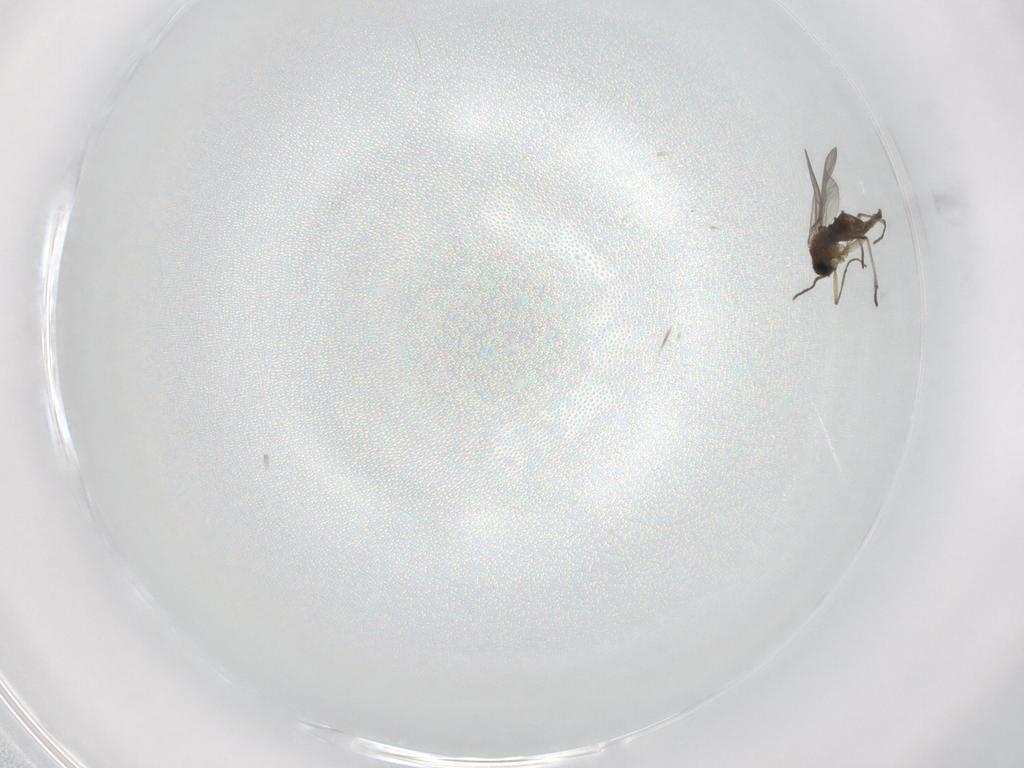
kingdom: Animalia
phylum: Arthropoda
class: Insecta
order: Diptera
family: Sciaridae
